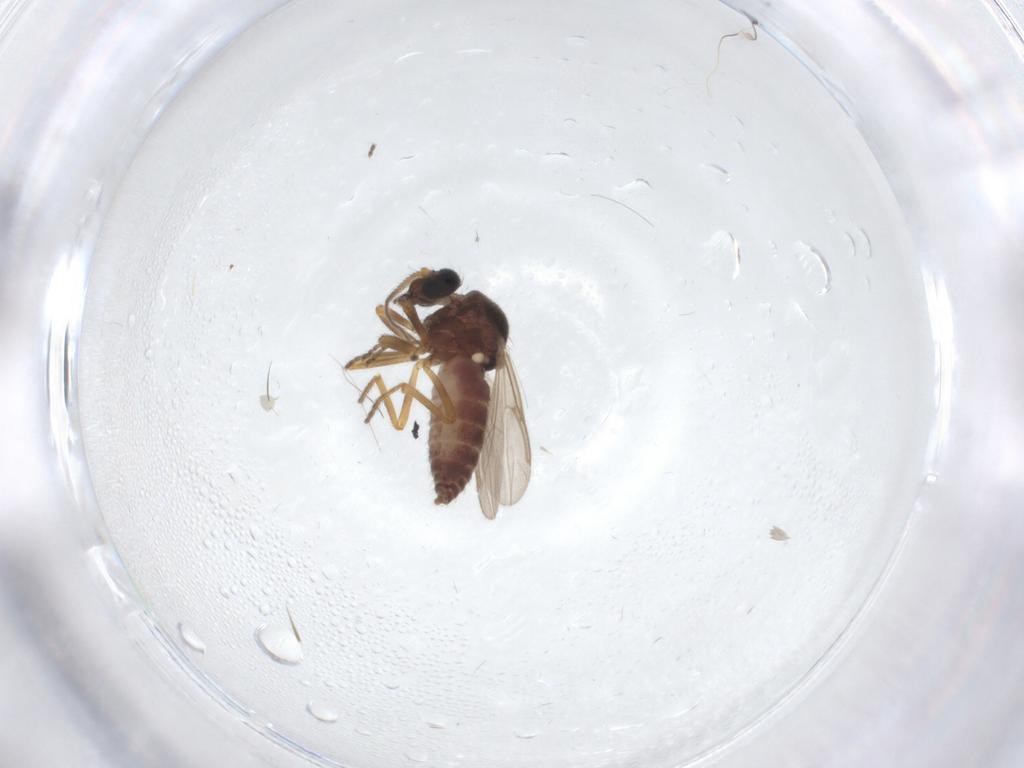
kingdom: Animalia
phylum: Arthropoda
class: Insecta
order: Diptera
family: Ceratopogonidae
